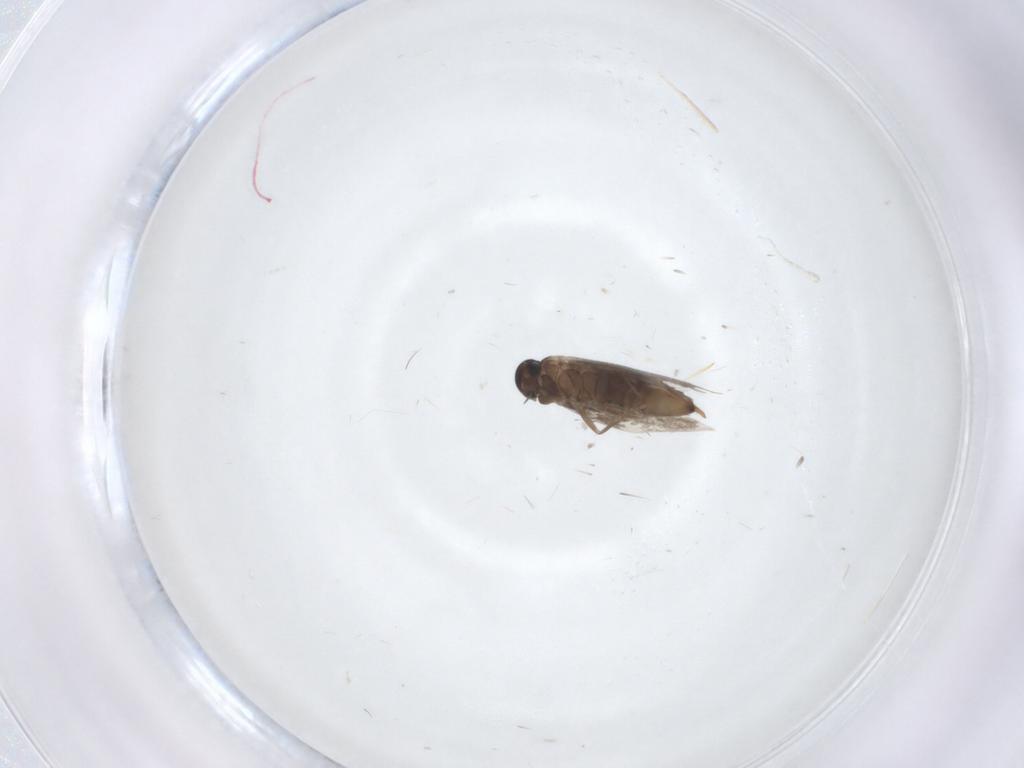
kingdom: Animalia
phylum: Arthropoda
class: Insecta
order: Lepidoptera
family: Heliozelidae
